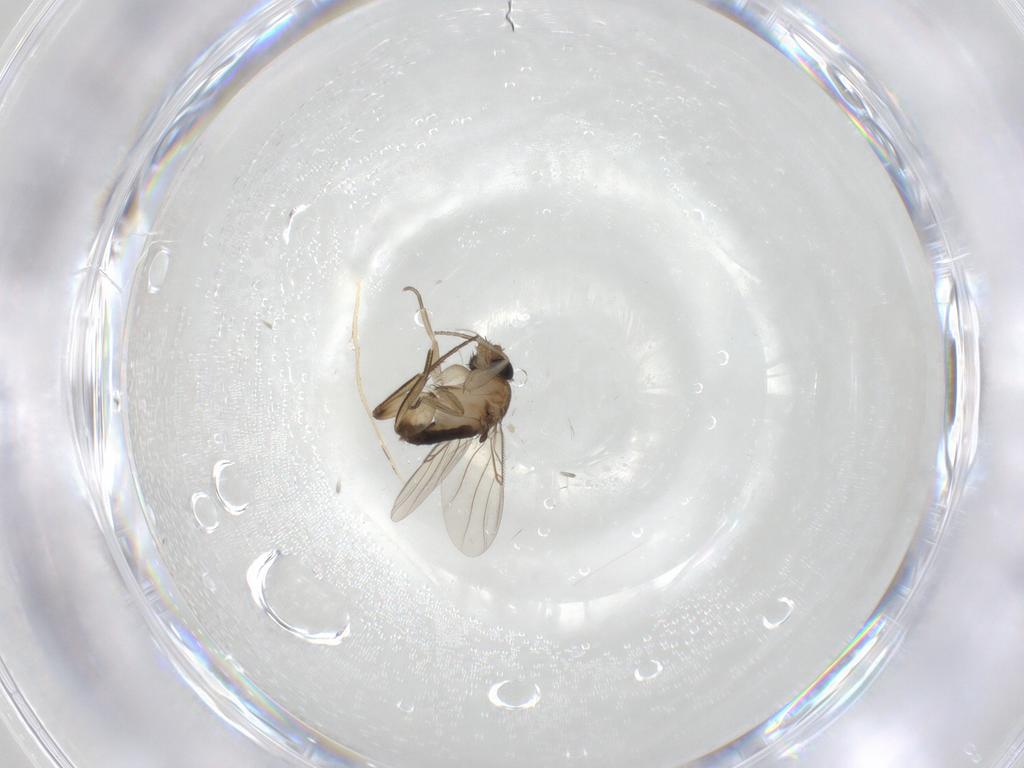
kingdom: Animalia
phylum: Arthropoda
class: Insecta
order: Diptera
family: Phoridae
